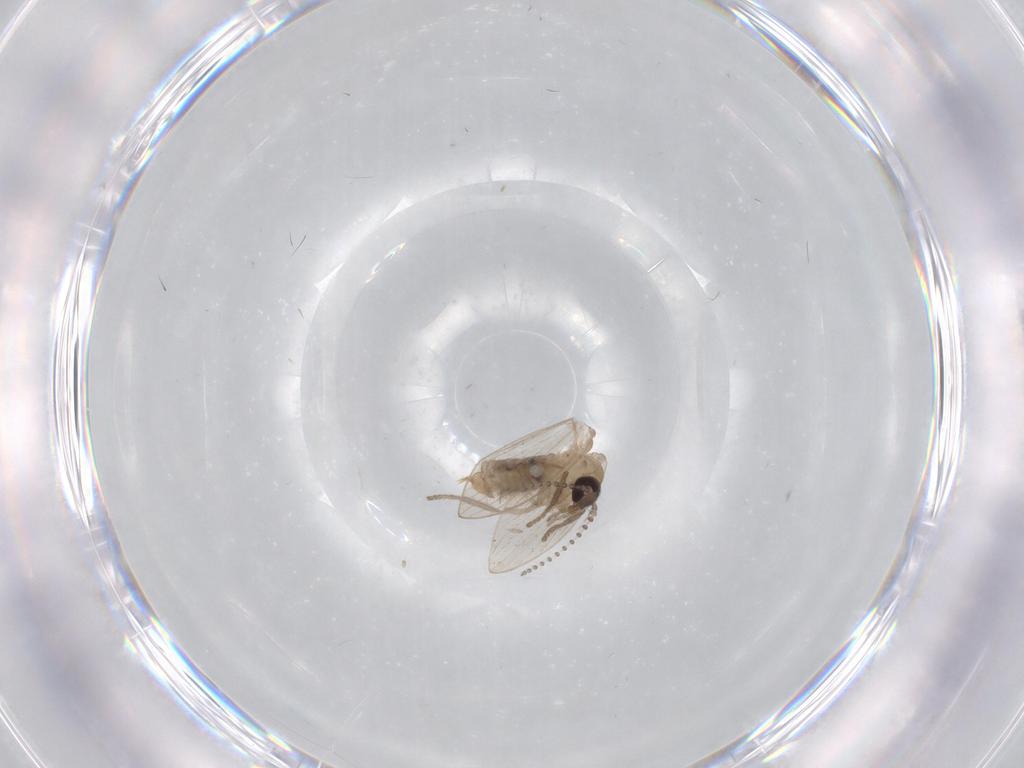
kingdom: Animalia
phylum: Arthropoda
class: Insecta
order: Diptera
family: Psychodidae
